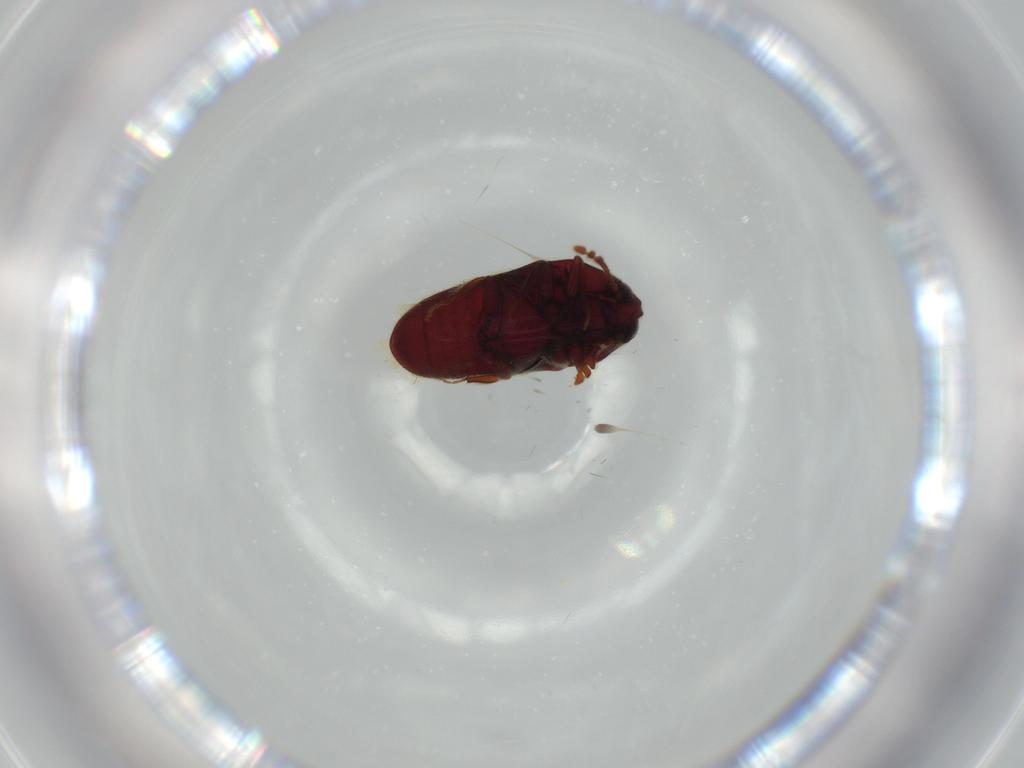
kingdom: Animalia
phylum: Arthropoda
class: Insecta
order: Coleoptera
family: Throscidae
